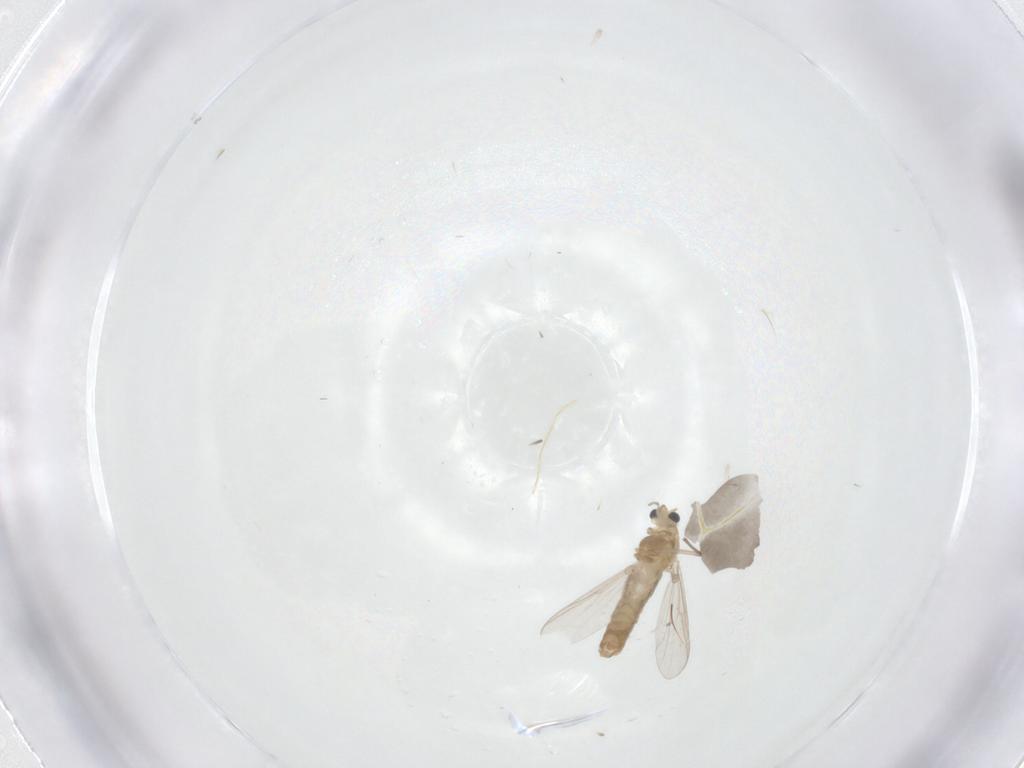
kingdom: Animalia
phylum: Arthropoda
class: Insecta
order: Diptera
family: Chironomidae
